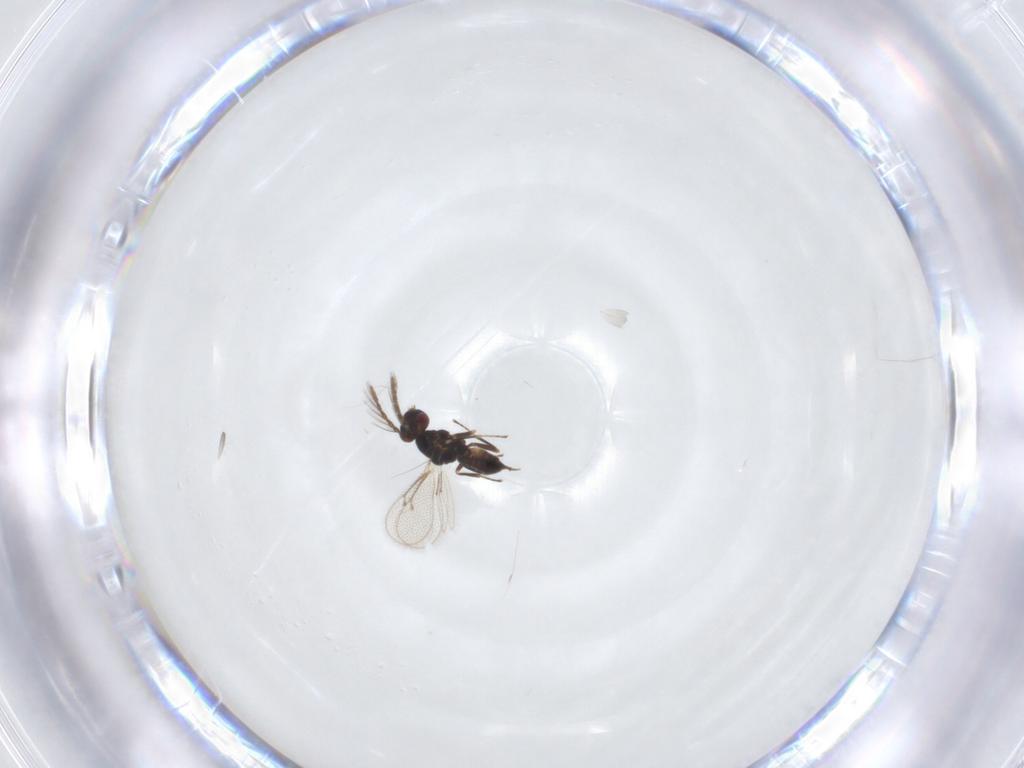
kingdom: Animalia
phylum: Arthropoda
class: Insecta
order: Hymenoptera
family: Eulophidae
